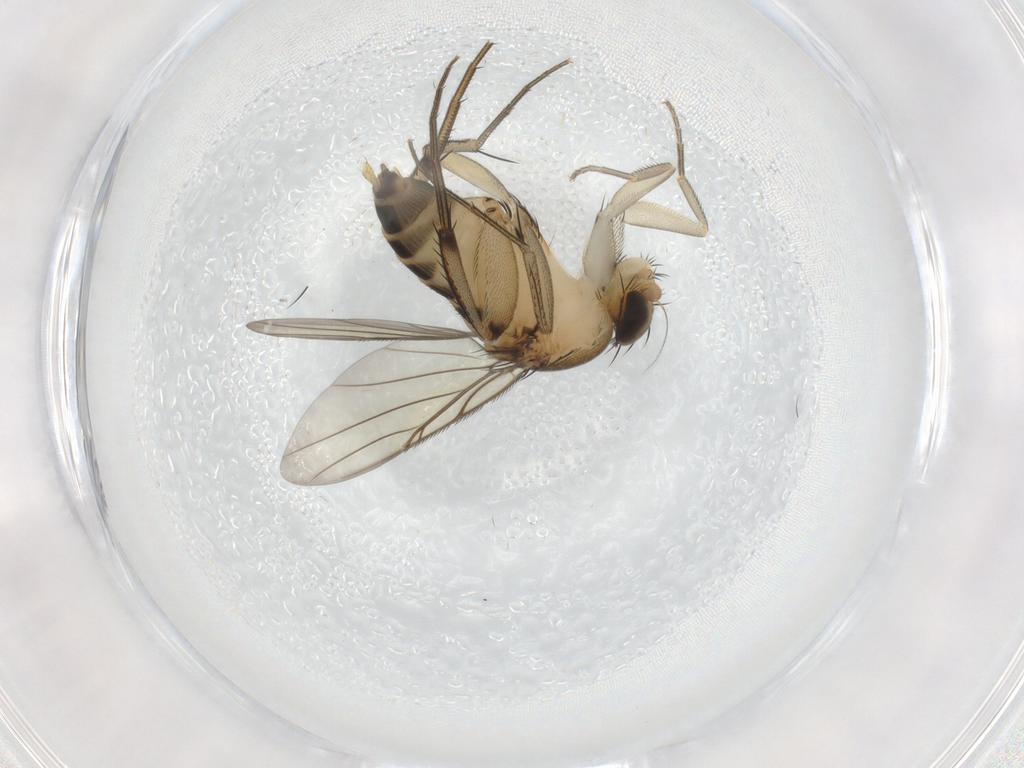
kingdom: Animalia
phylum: Arthropoda
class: Insecta
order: Diptera
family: Phoridae
